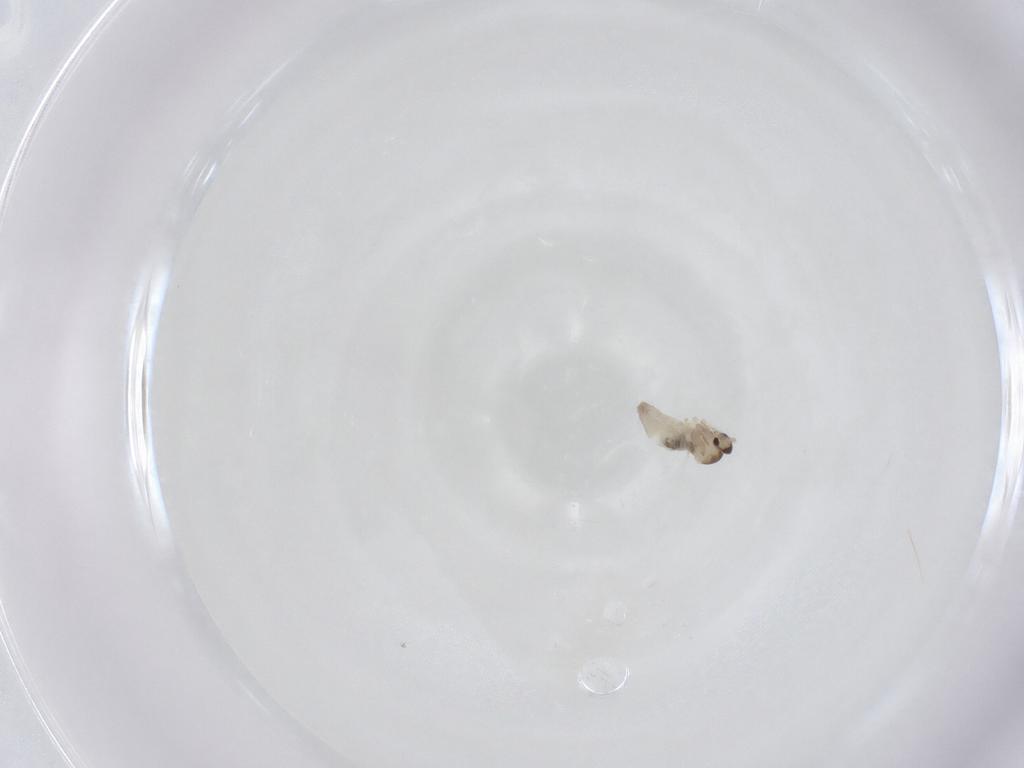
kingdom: Animalia
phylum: Arthropoda
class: Insecta
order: Diptera
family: Cecidomyiidae
